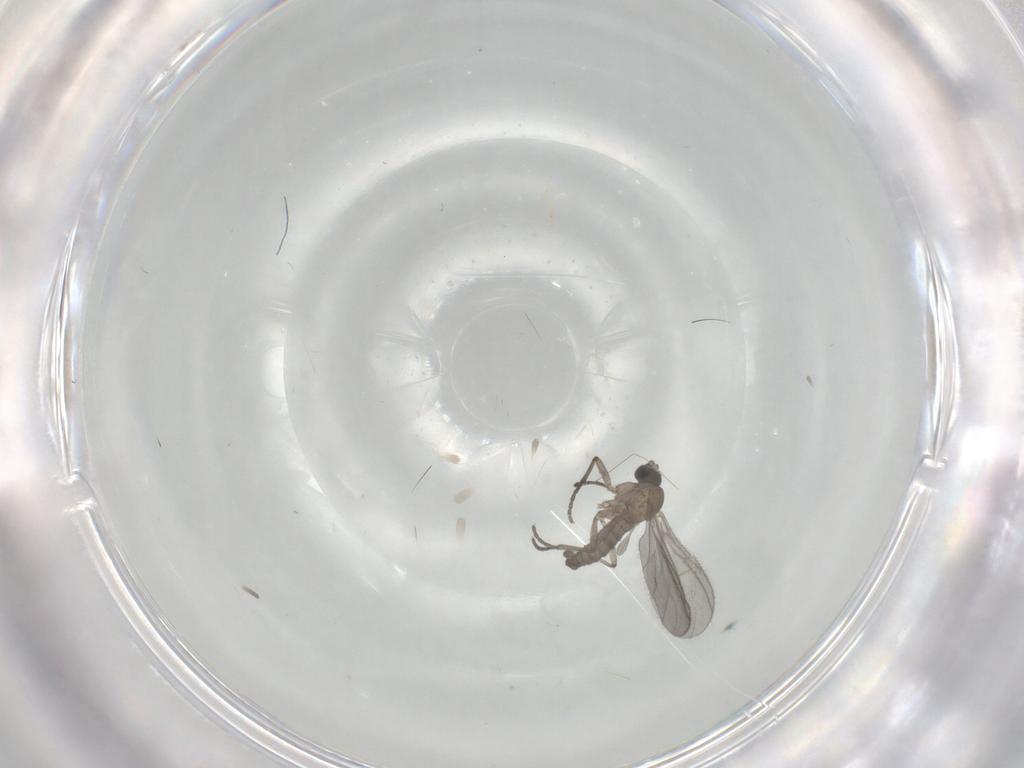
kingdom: Animalia
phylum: Arthropoda
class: Insecta
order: Diptera
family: Sciaridae
